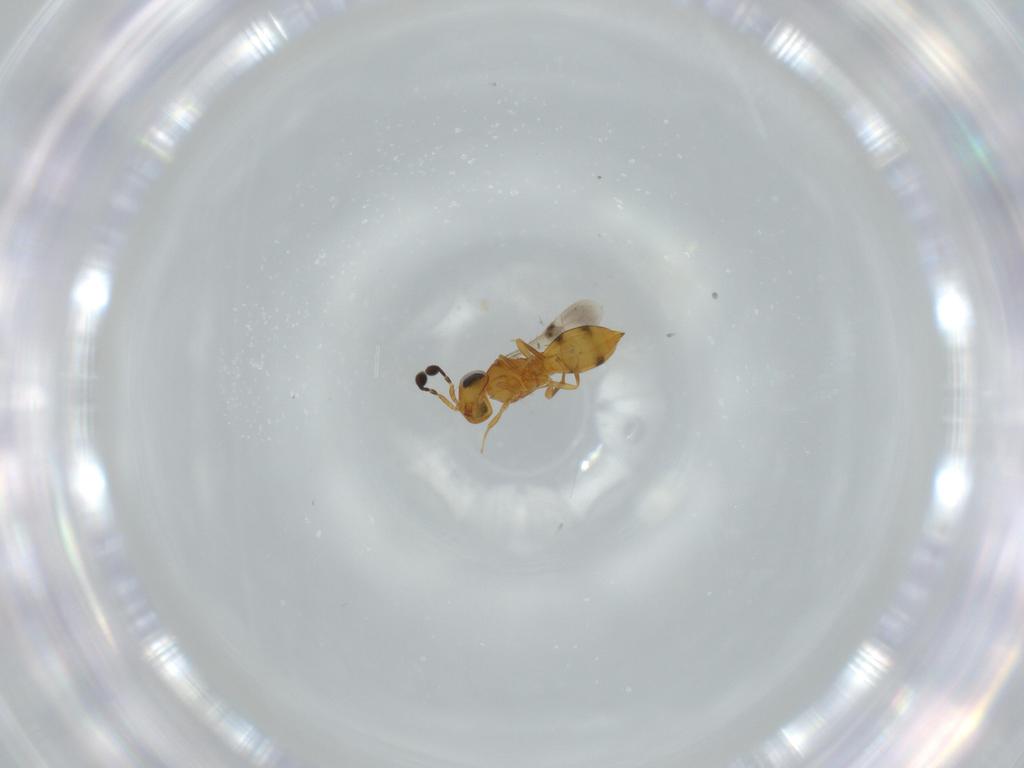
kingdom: Animalia
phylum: Arthropoda
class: Insecta
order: Hymenoptera
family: Scelionidae
